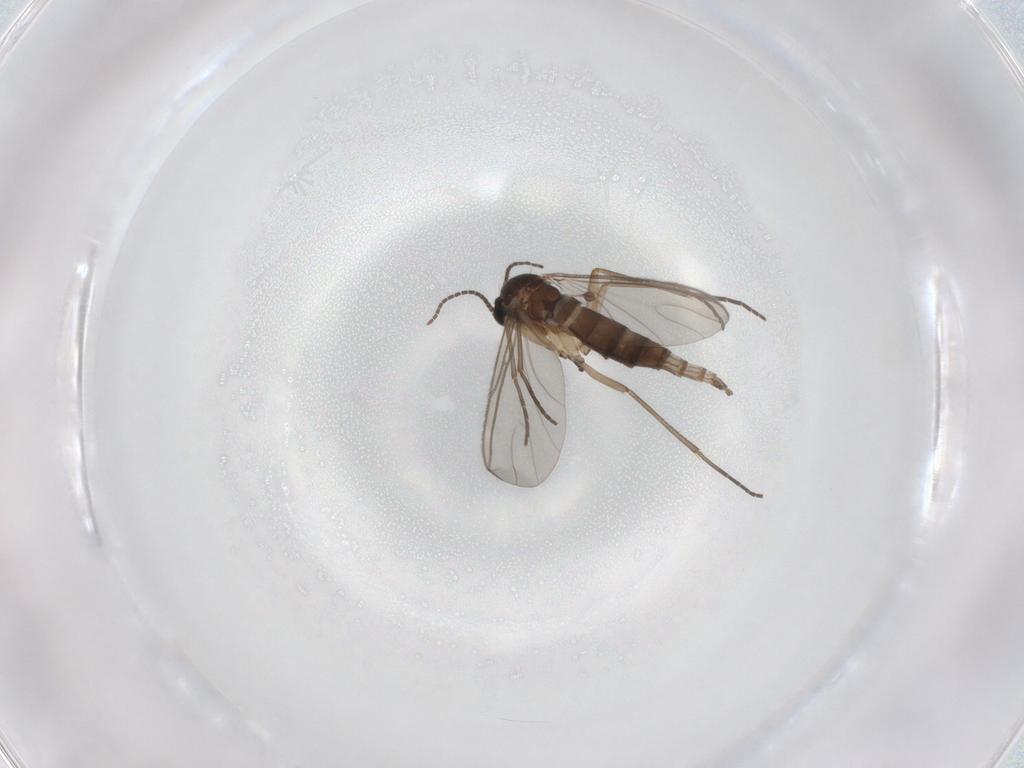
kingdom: Animalia
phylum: Arthropoda
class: Insecta
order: Diptera
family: Sciaridae
